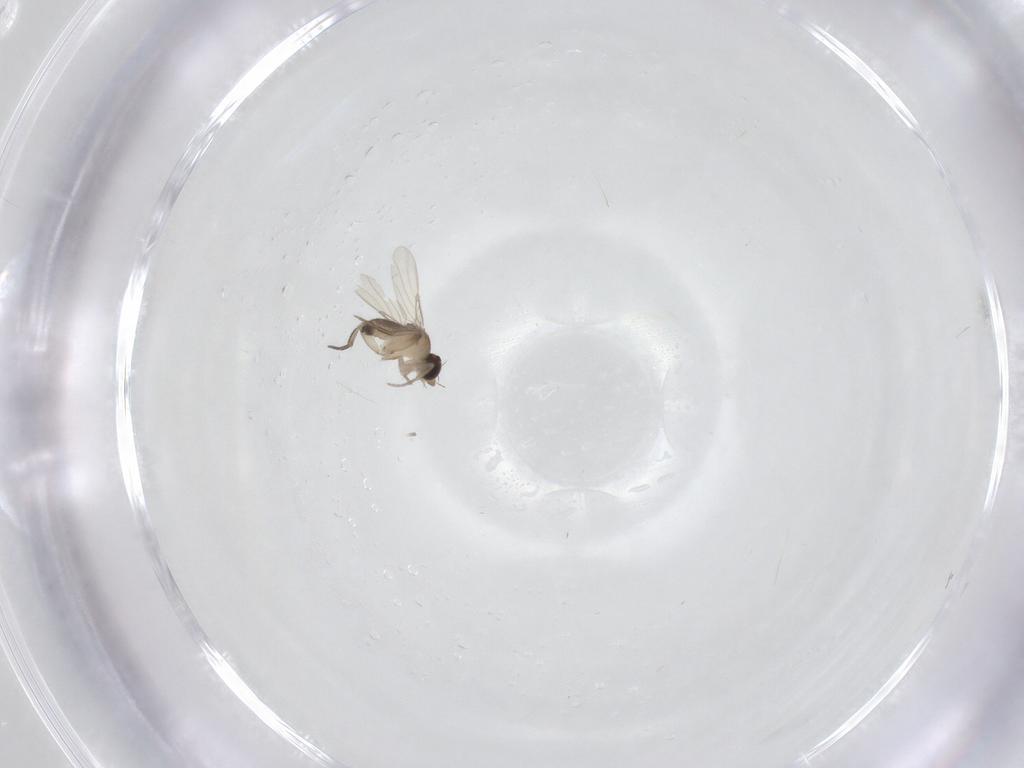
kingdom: Animalia
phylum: Arthropoda
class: Insecta
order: Diptera
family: Phoridae
